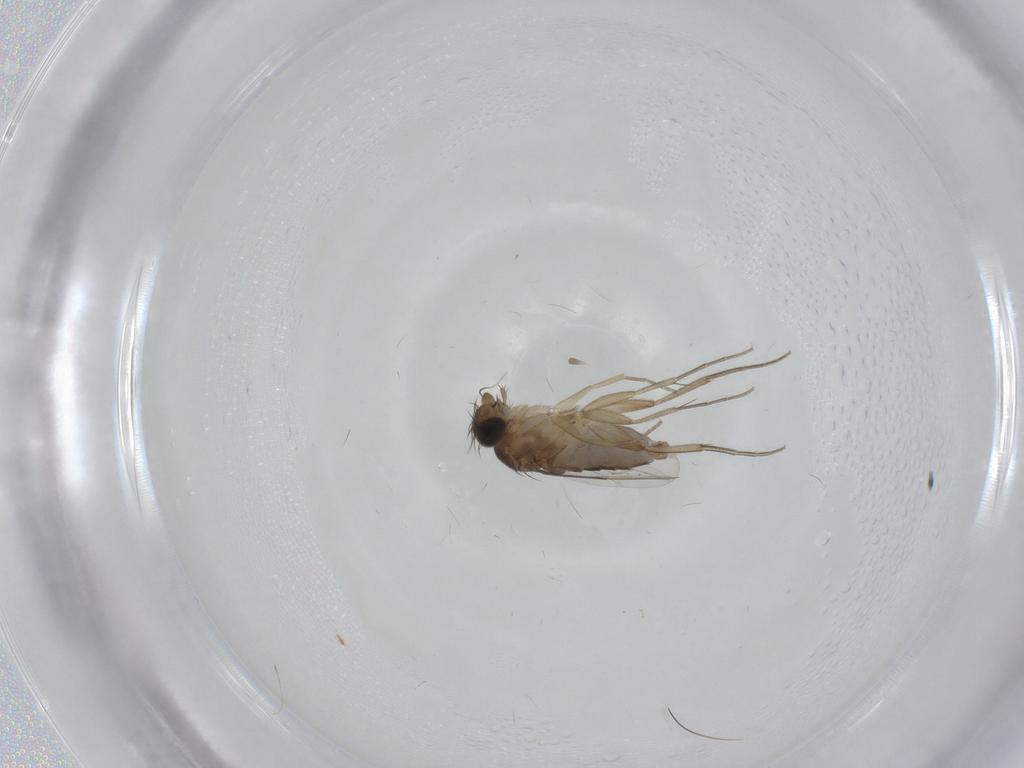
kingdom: Animalia
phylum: Arthropoda
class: Insecta
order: Diptera
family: Phoridae
